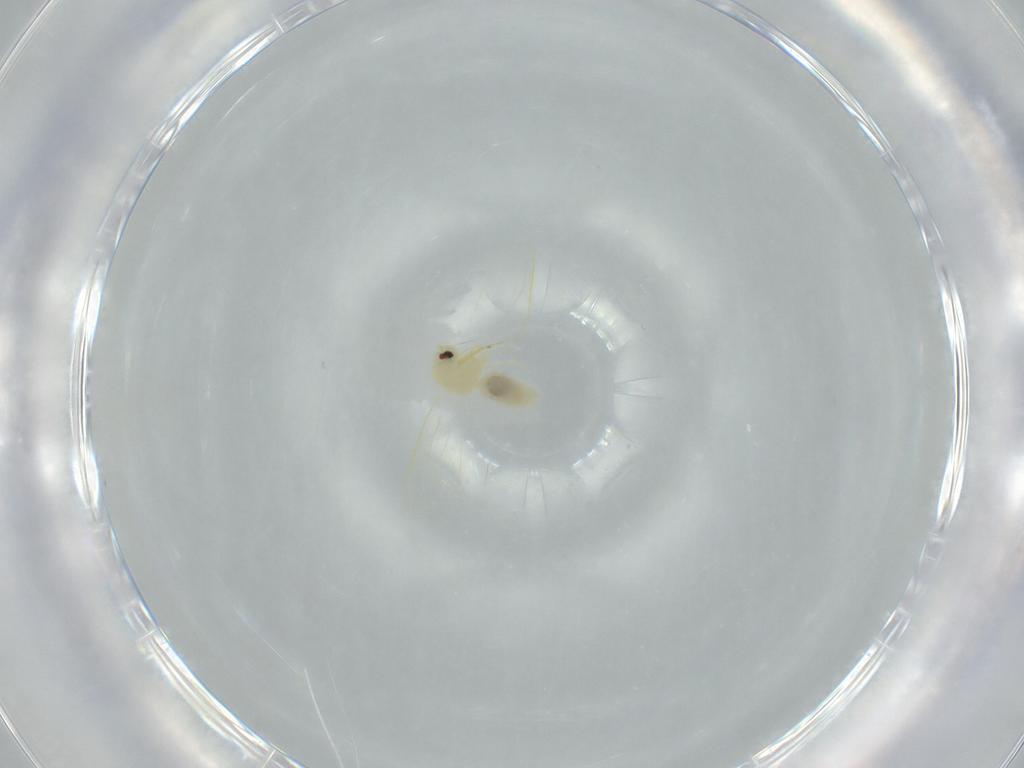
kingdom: Animalia
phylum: Arthropoda
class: Insecta
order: Hemiptera
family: Aleyrodidae
